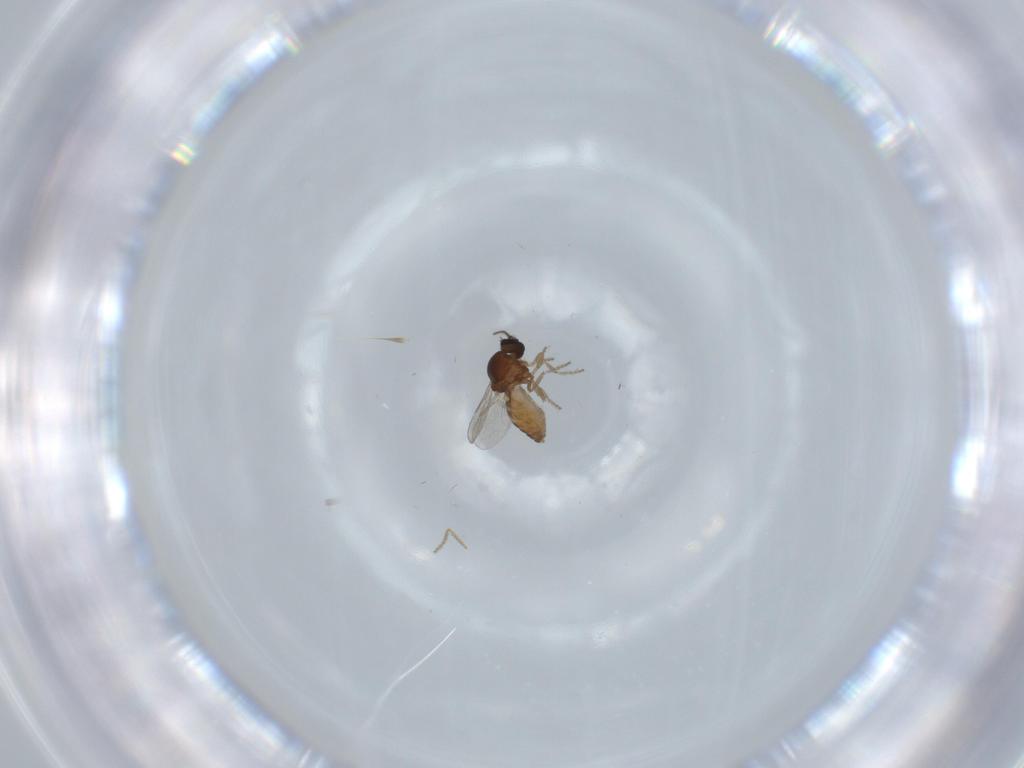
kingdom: Animalia
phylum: Arthropoda
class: Insecta
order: Diptera
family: Ceratopogonidae
